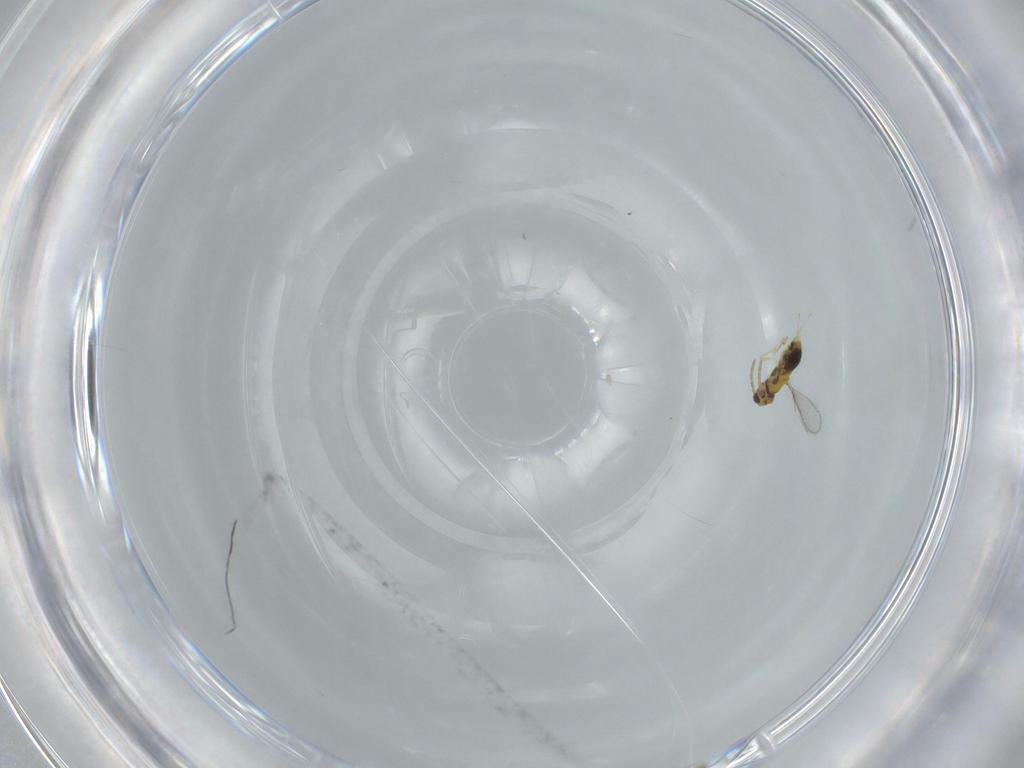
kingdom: Animalia
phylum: Arthropoda
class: Insecta
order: Hymenoptera
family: Aphelinidae
